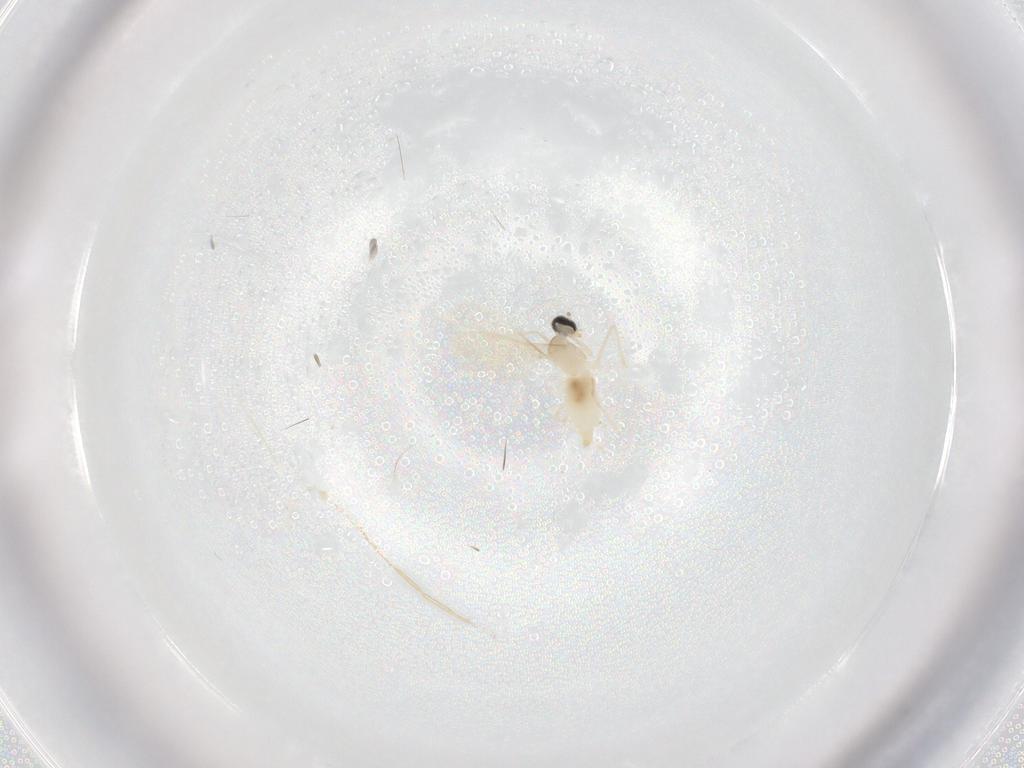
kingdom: Animalia
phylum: Arthropoda
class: Insecta
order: Diptera
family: Cecidomyiidae
